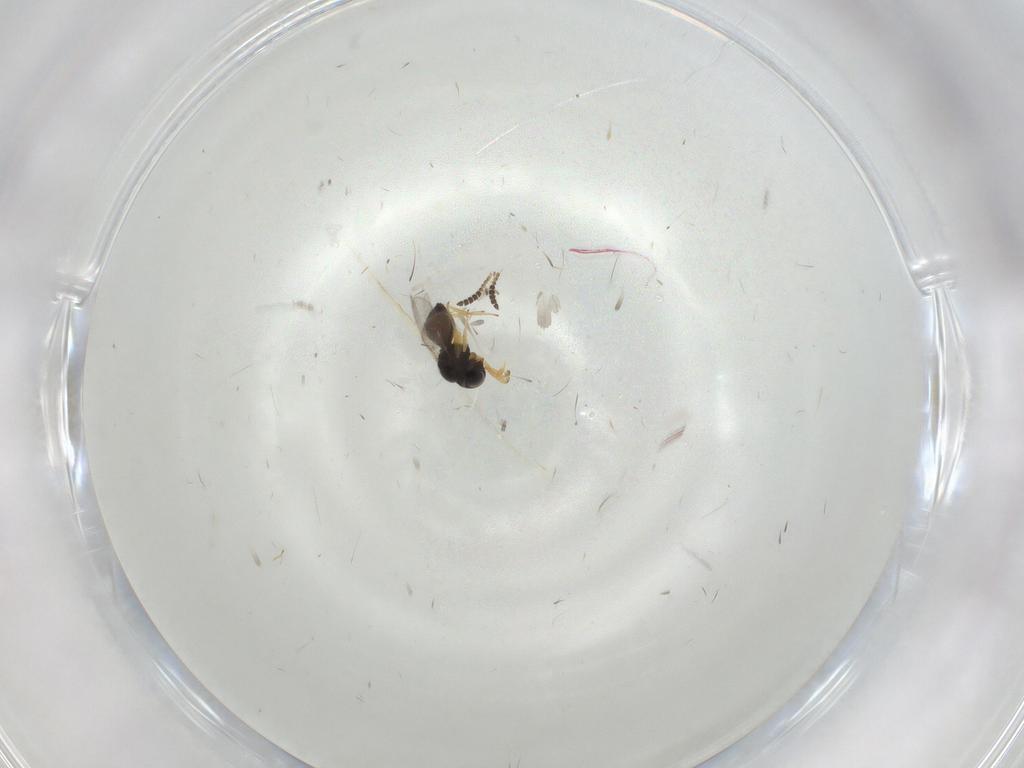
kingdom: Animalia
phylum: Arthropoda
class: Insecta
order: Hymenoptera
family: Scelionidae
